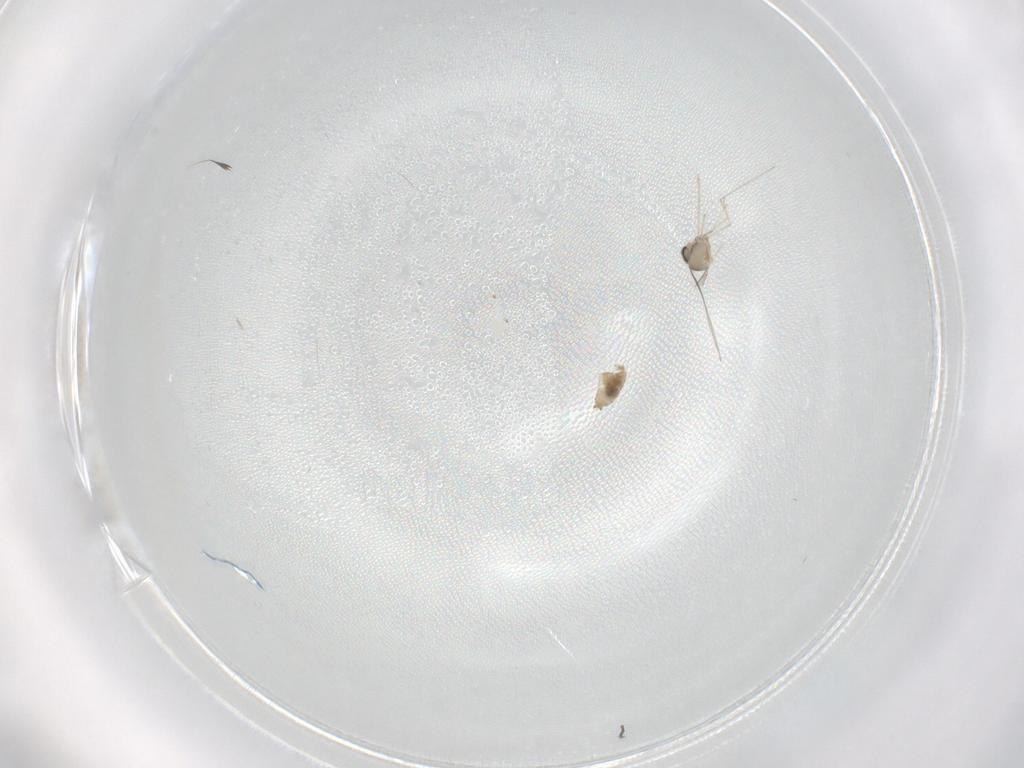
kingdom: Animalia
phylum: Arthropoda
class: Insecta
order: Diptera
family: Cecidomyiidae
